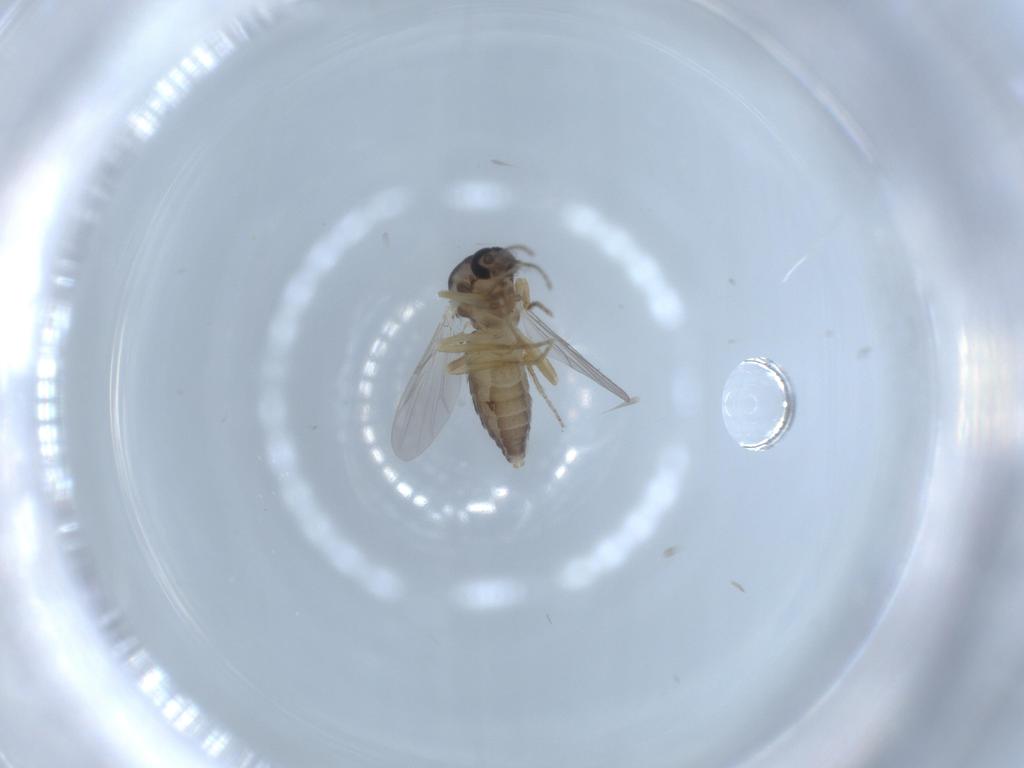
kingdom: Animalia
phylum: Arthropoda
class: Insecta
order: Diptera
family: Ceratopogonidae
